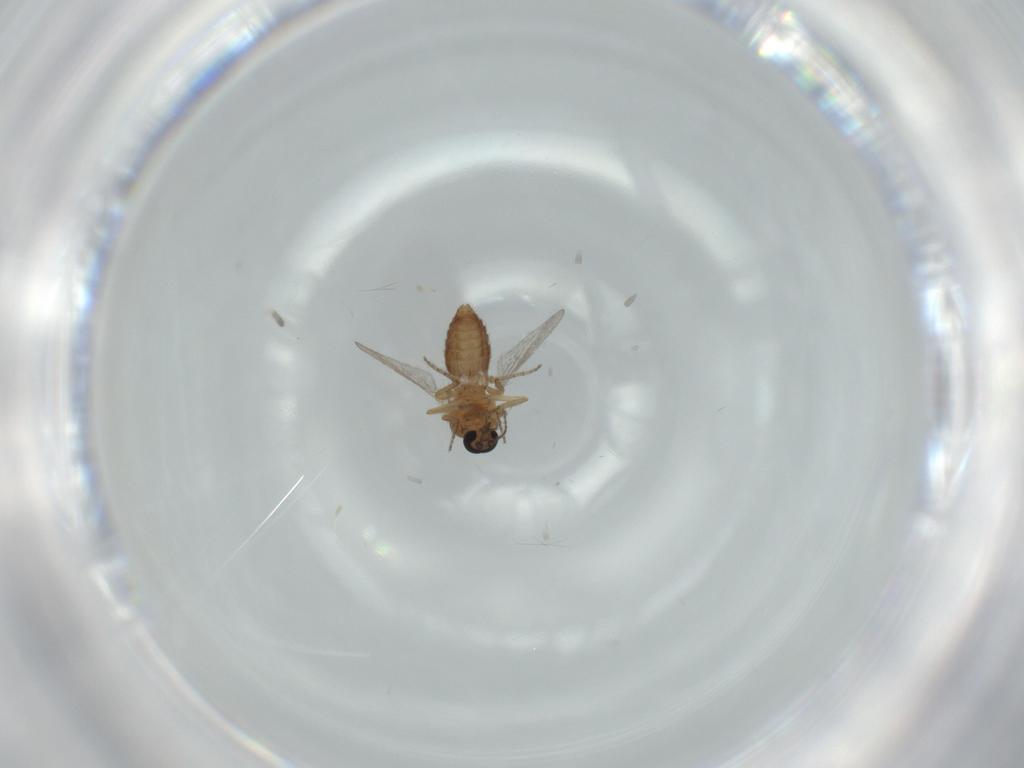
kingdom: Animalia
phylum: Arthropoda
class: Insecta
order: Diptera
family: Ceratopogonidae
